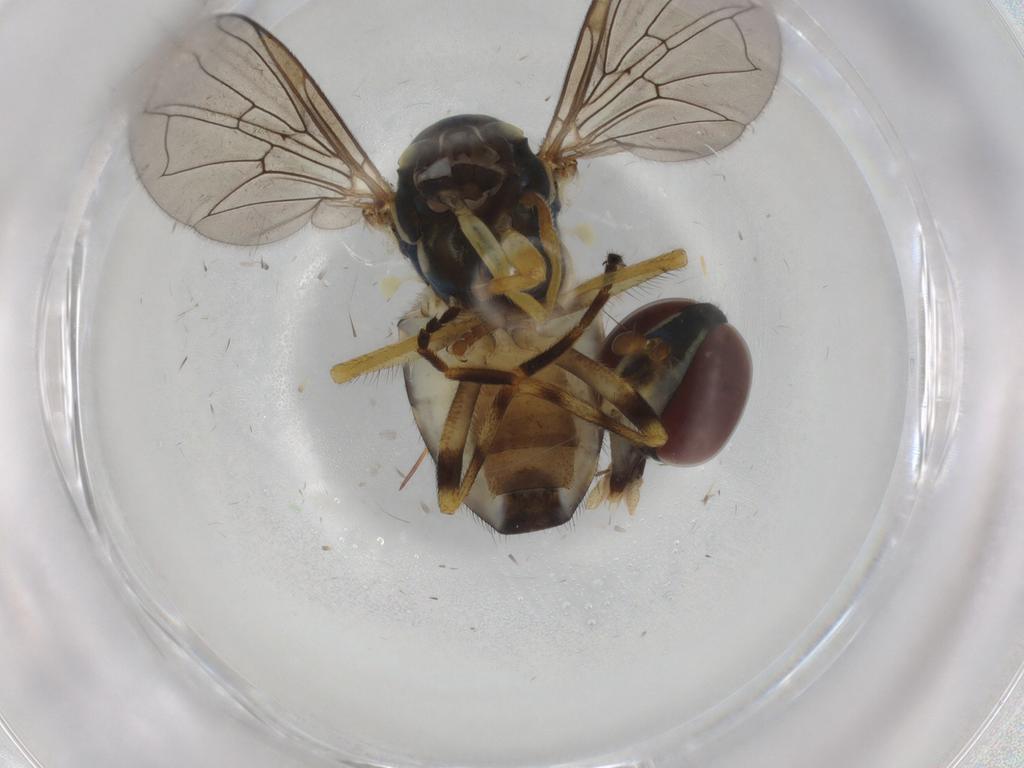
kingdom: Animalia
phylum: Arthropoda
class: Insecta
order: Diptera
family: Syrphidae
